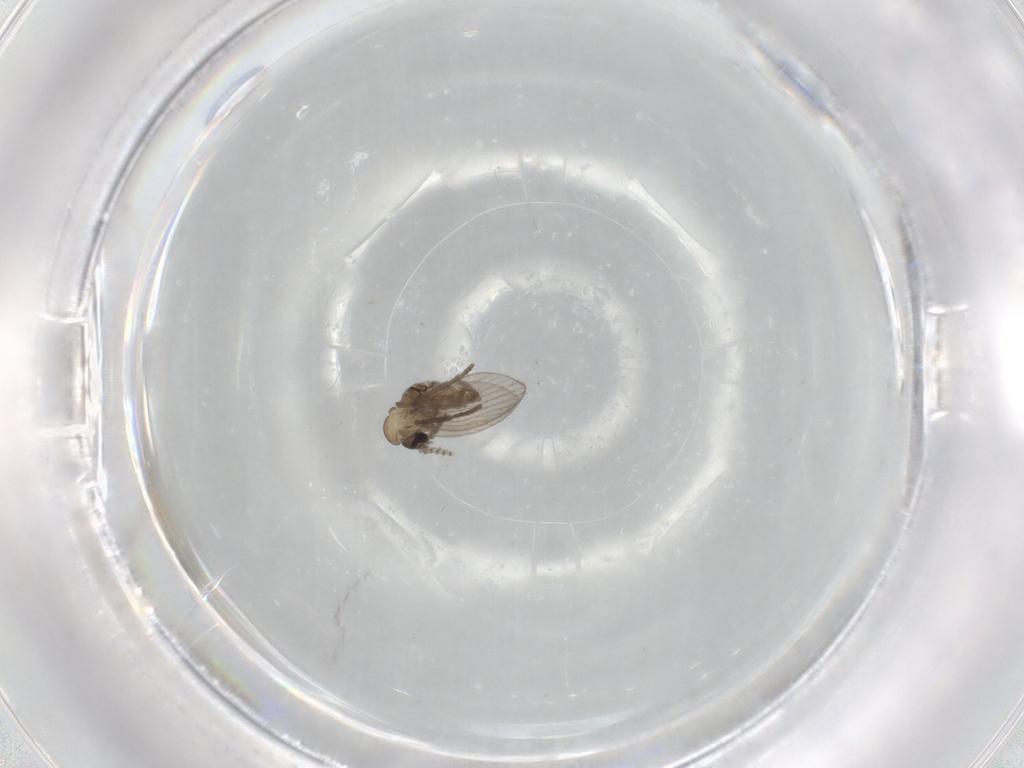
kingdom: Animalia
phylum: Arthropoda
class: Insecta
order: Diptera
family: Psychodidae
